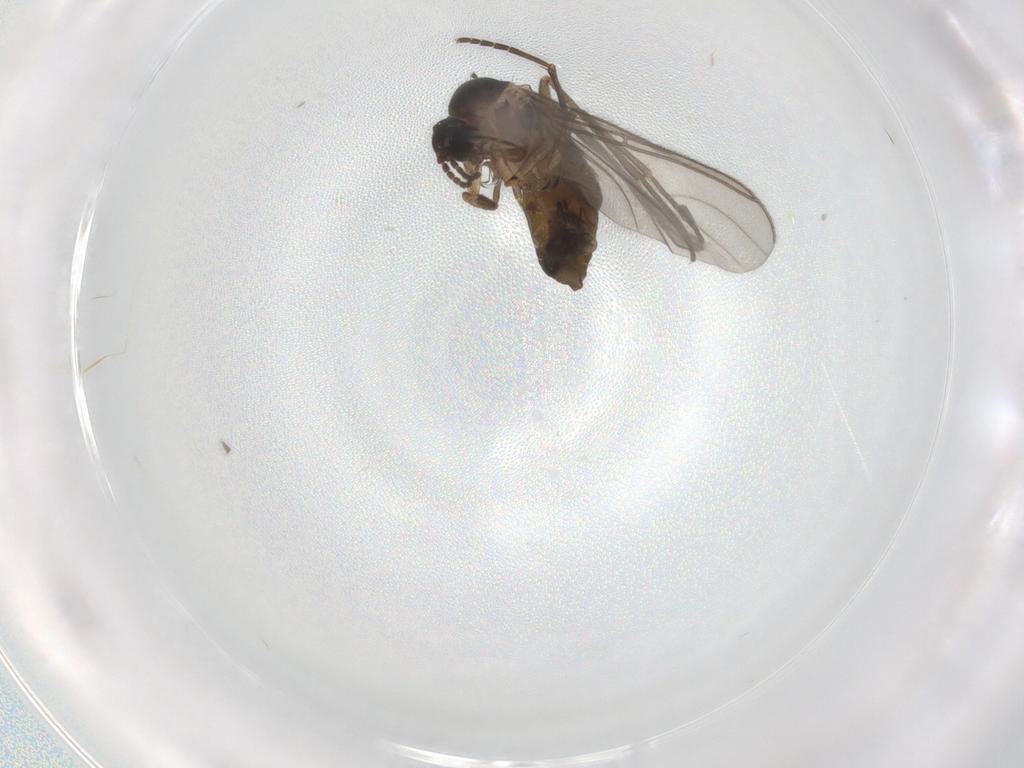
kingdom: Animalia
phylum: Arthropoda
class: Insecta
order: Diptera
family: Sciaridae
